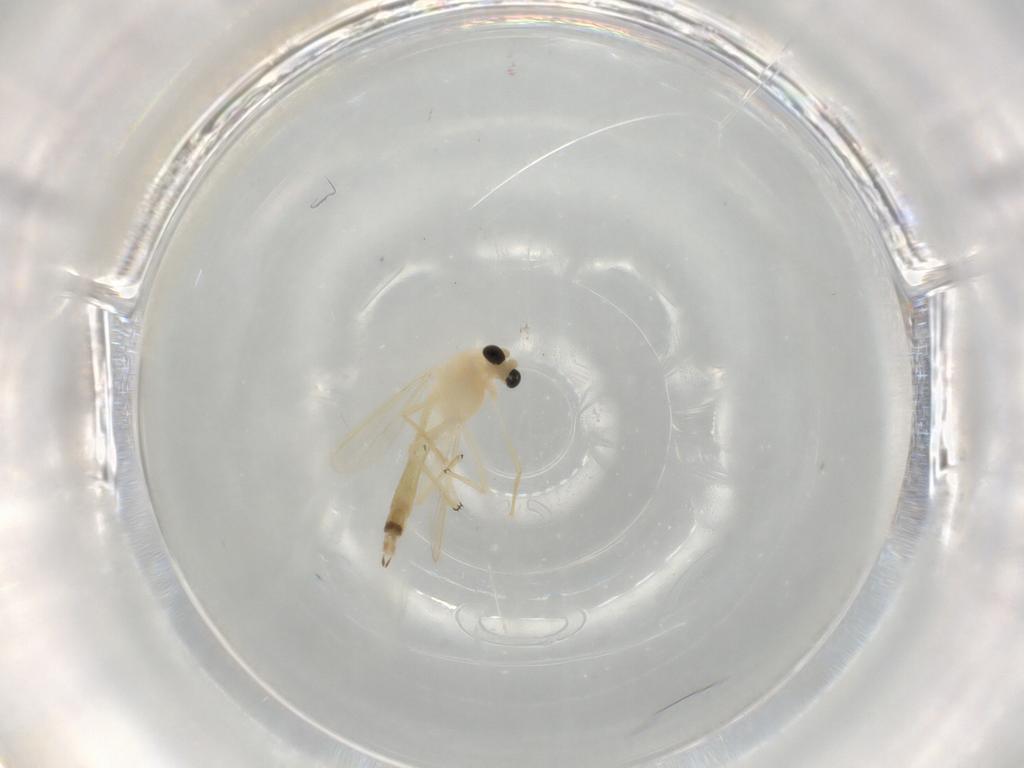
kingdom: Animalia
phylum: Arthropoda
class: Insecta
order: Diptera
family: Chironomidae
